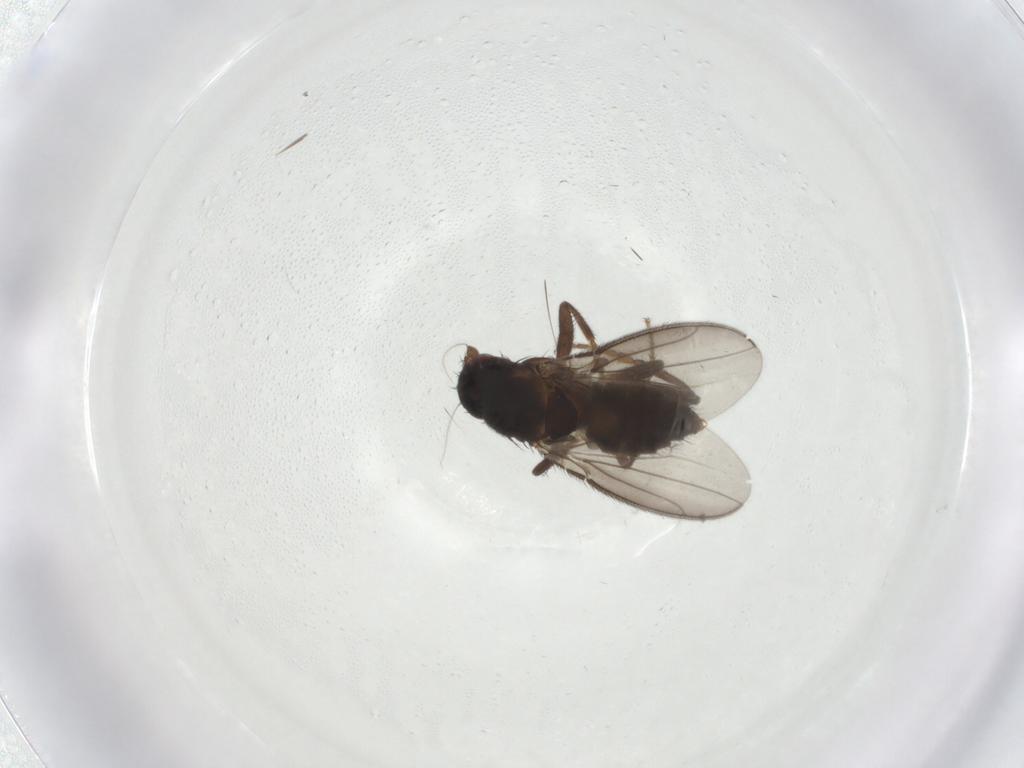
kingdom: Animalia
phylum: Arthropoda
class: Insecta
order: Diptera
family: Sphaeroceridae
